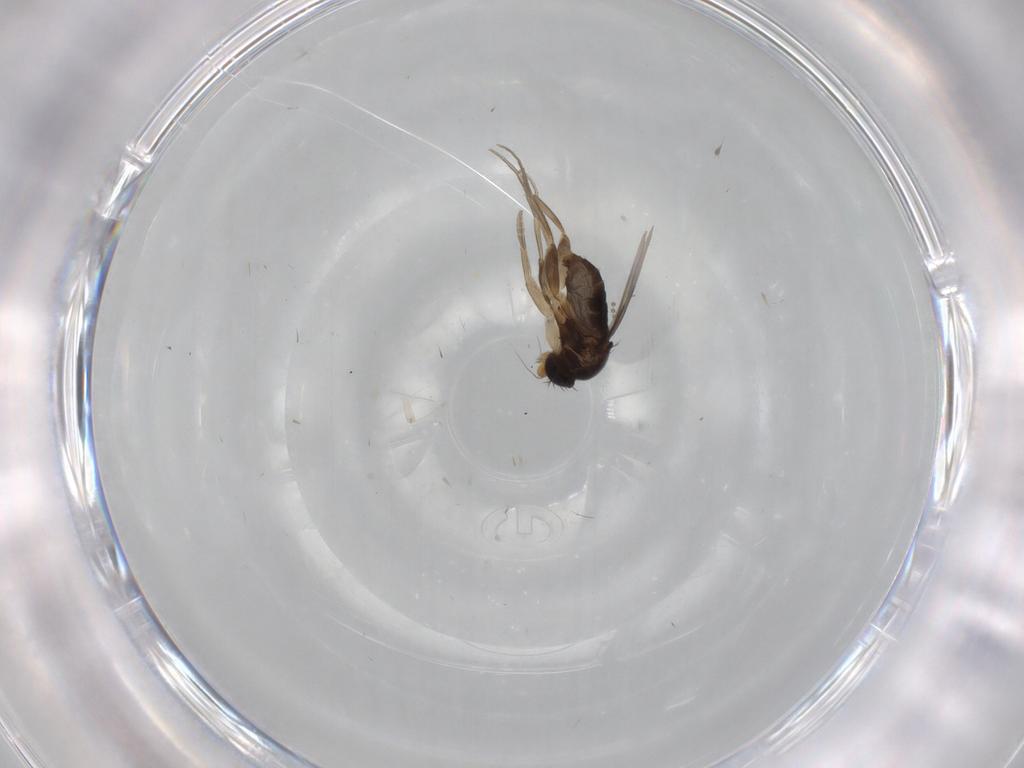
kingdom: Animalia
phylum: Arthropoda
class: Insecta
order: Diptera
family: Phoridae
